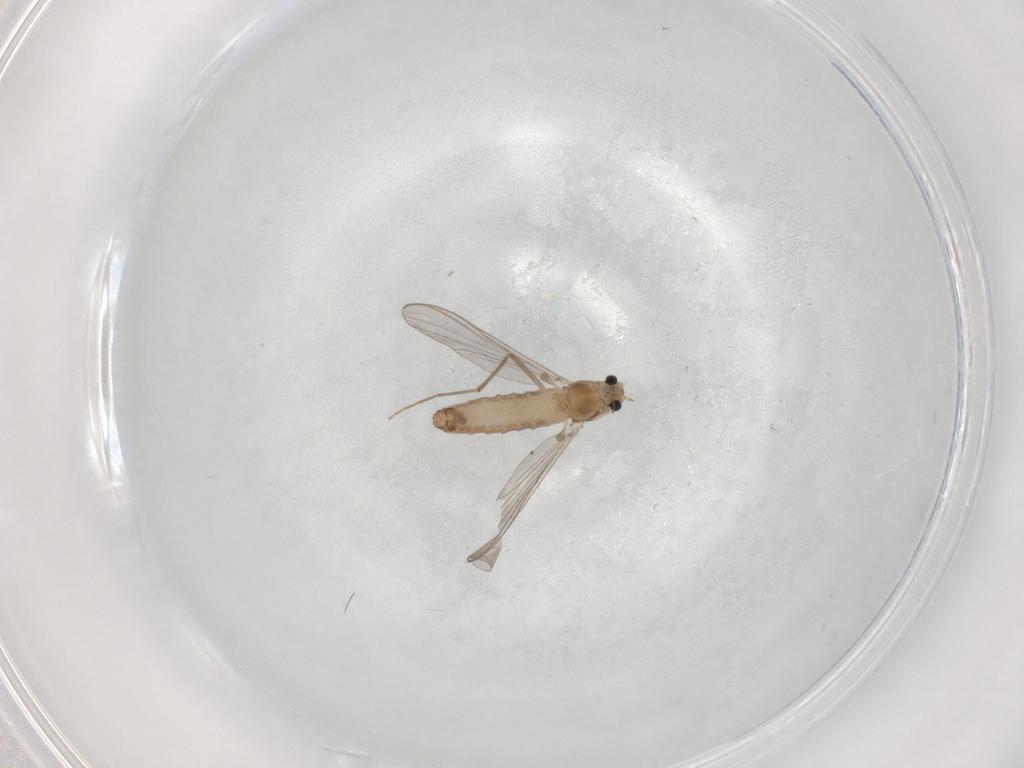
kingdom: Animalia
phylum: Arthropoda
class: Insecta
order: Diptera
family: Chironomidae
